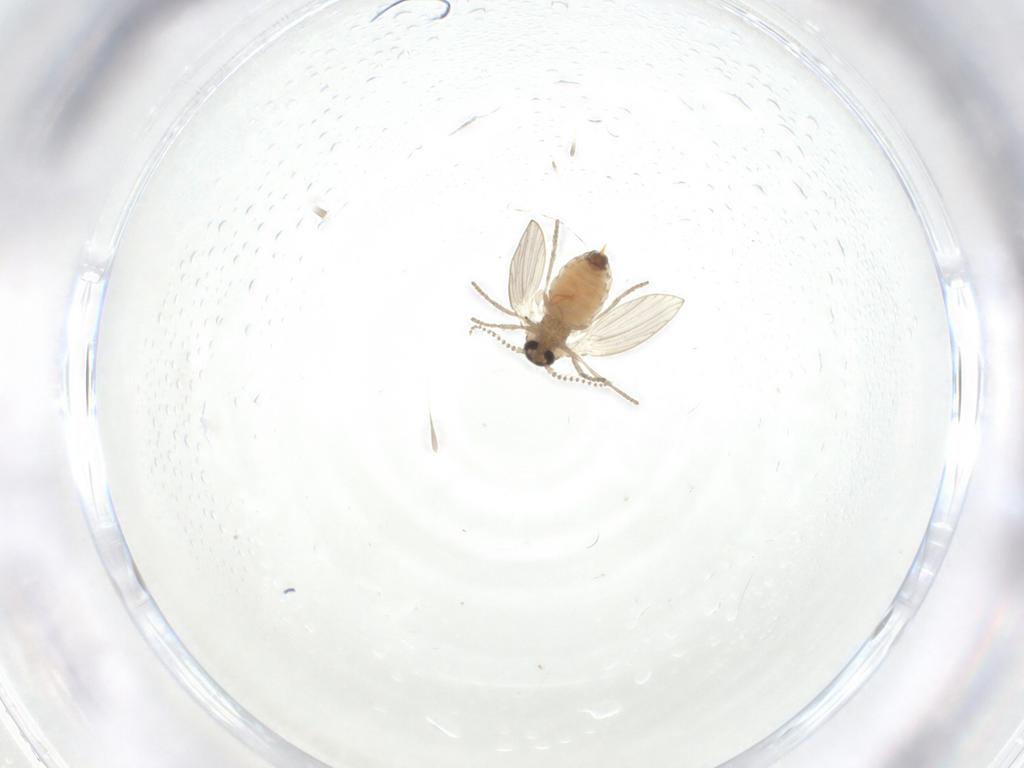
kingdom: Animalia
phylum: Arthropoda
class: Insecta
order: Diptera
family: Psychodidae
